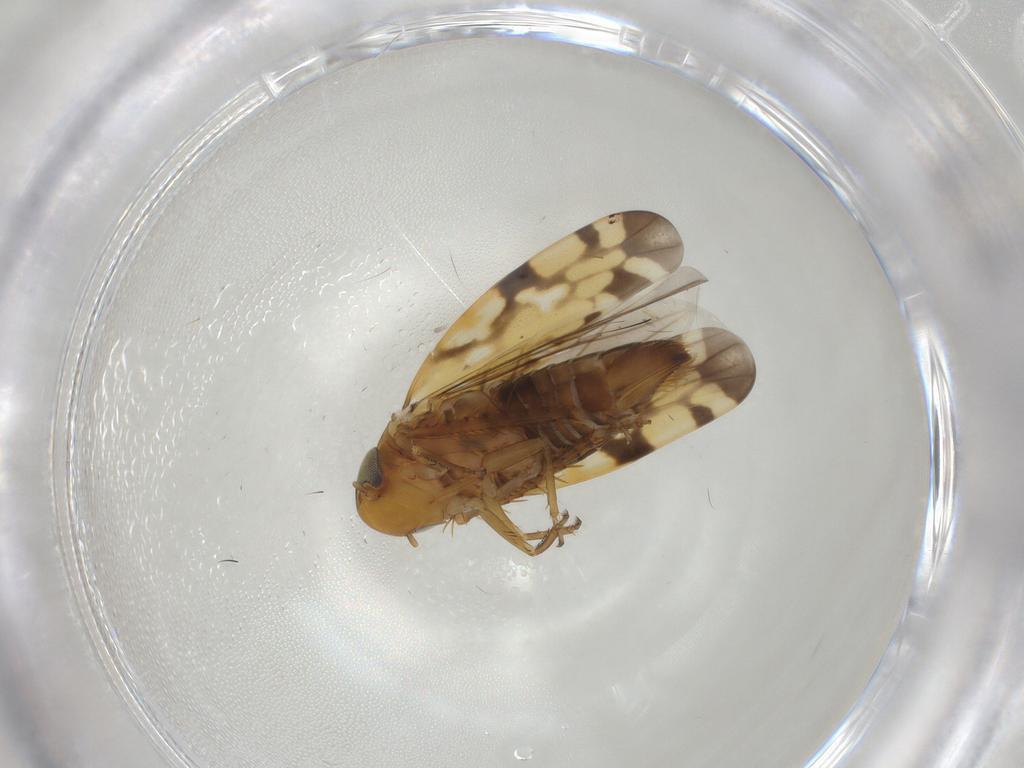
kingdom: Animalia
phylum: Arthropoda
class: Insecta
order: Hemiptera
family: Cicadellidae
